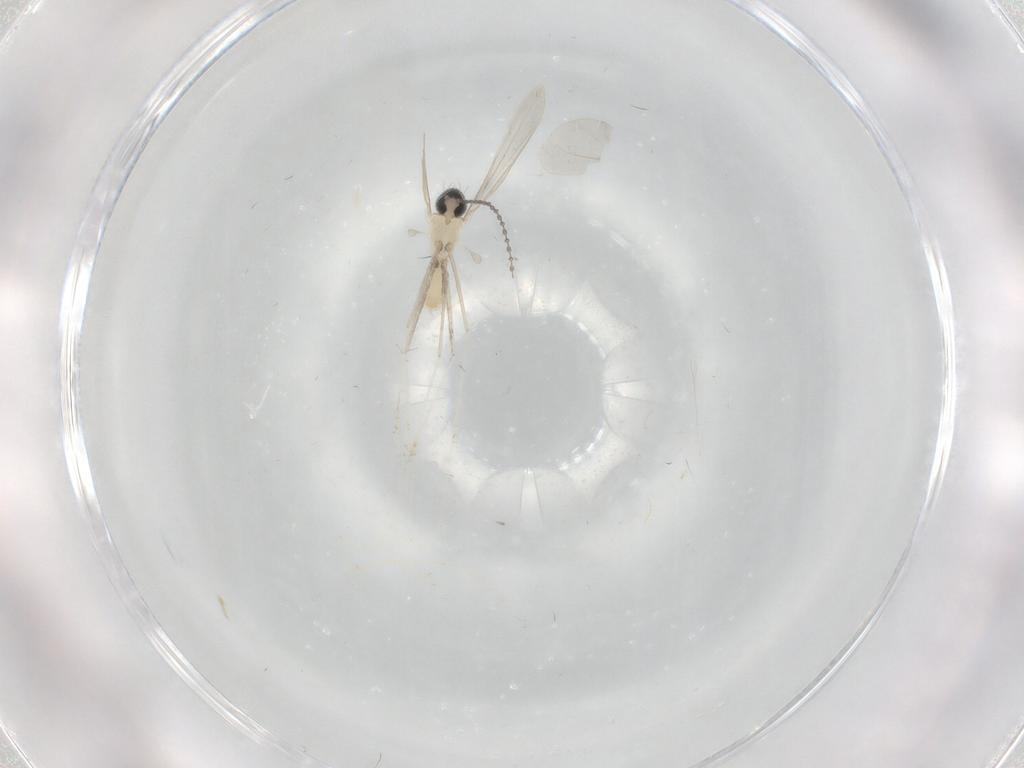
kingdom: Animalia
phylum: Arthropoda
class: Insecta
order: Diptera
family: Cecidomyiidae
